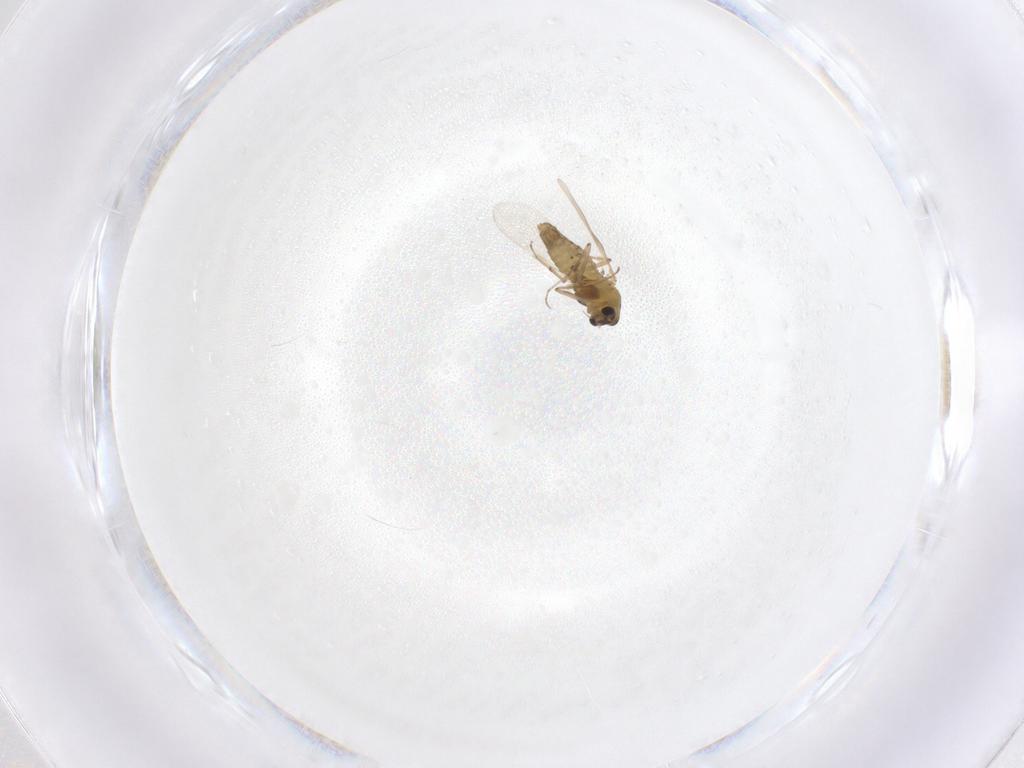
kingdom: Animalia
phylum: Arthropoda
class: Insecta
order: Diptera
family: Chironomidae
